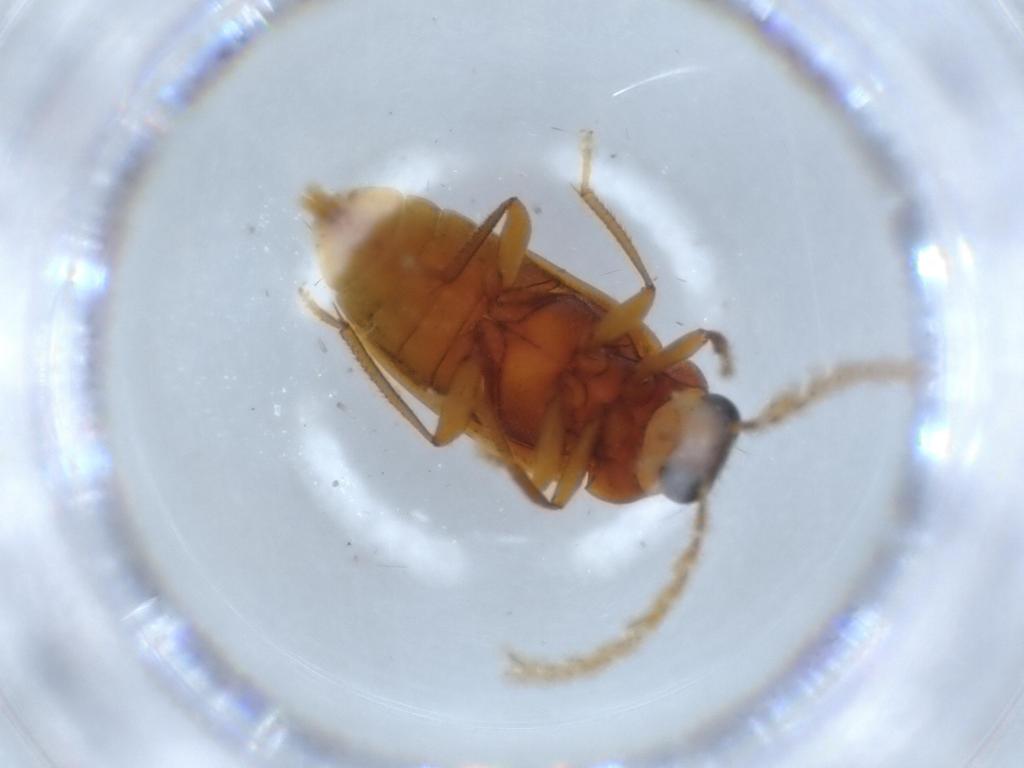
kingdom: Animalia
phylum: Arthropoda
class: Insecta
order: Coleoptera
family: Ptilodactylidae
